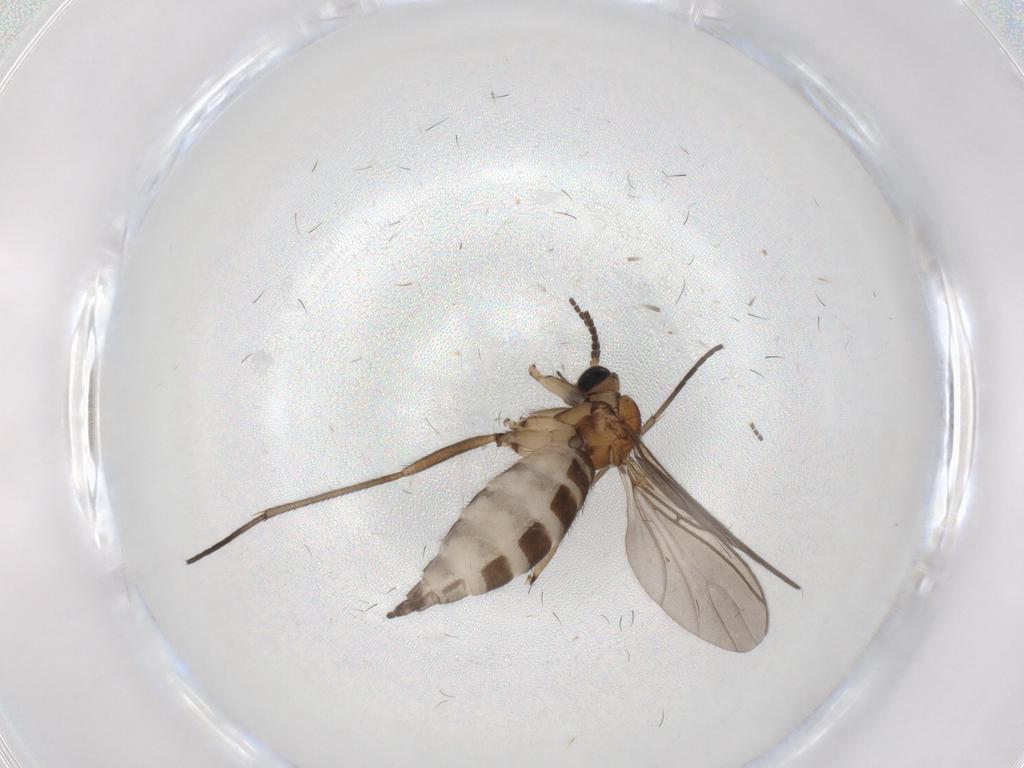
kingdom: Animalia
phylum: Arthropoda
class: Insecta
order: Diptera
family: Sciaridae
